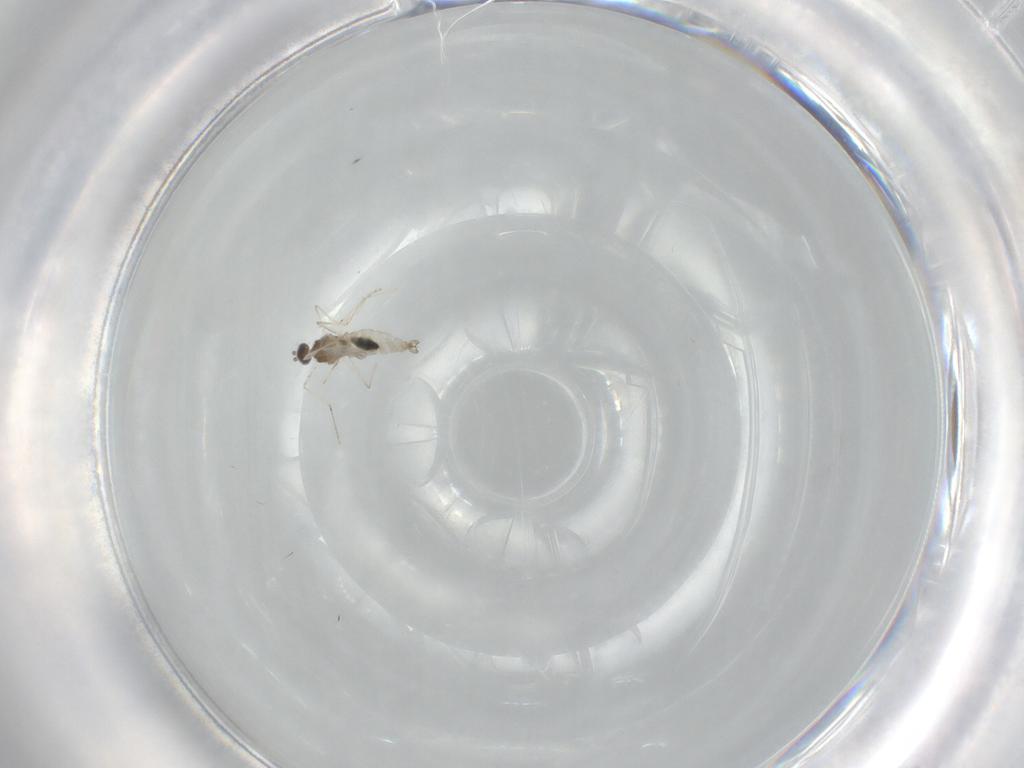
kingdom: Animalia
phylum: Arthropoda
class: Insecta
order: Diptera
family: Cecidomyiidae
